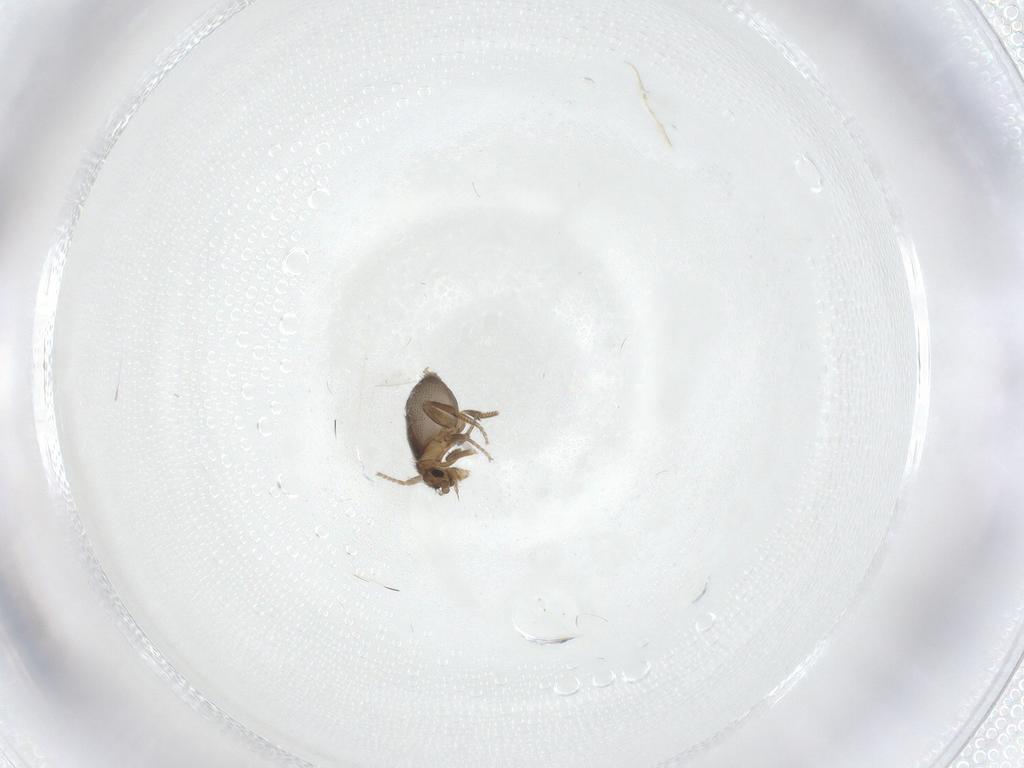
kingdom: Animalia
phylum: Arthropoda
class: Insecta
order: Diptera
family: Phoridae
